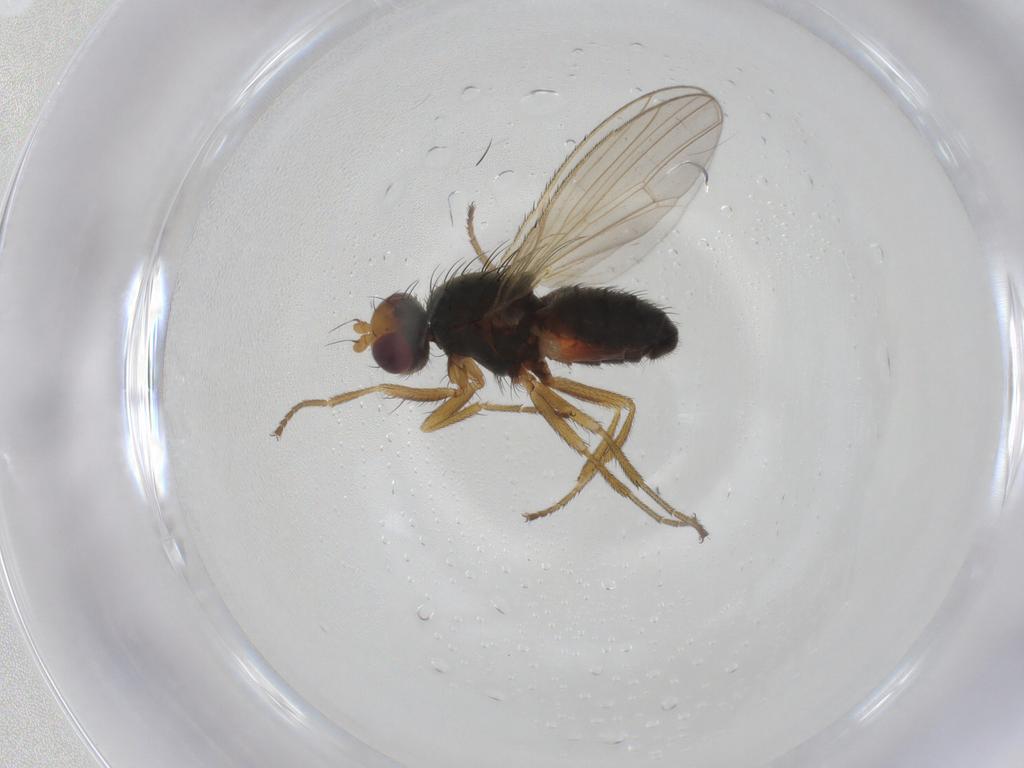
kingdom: Animalia
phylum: Arthropoda
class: Insecta
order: Diptera
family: Heleomyzidae
